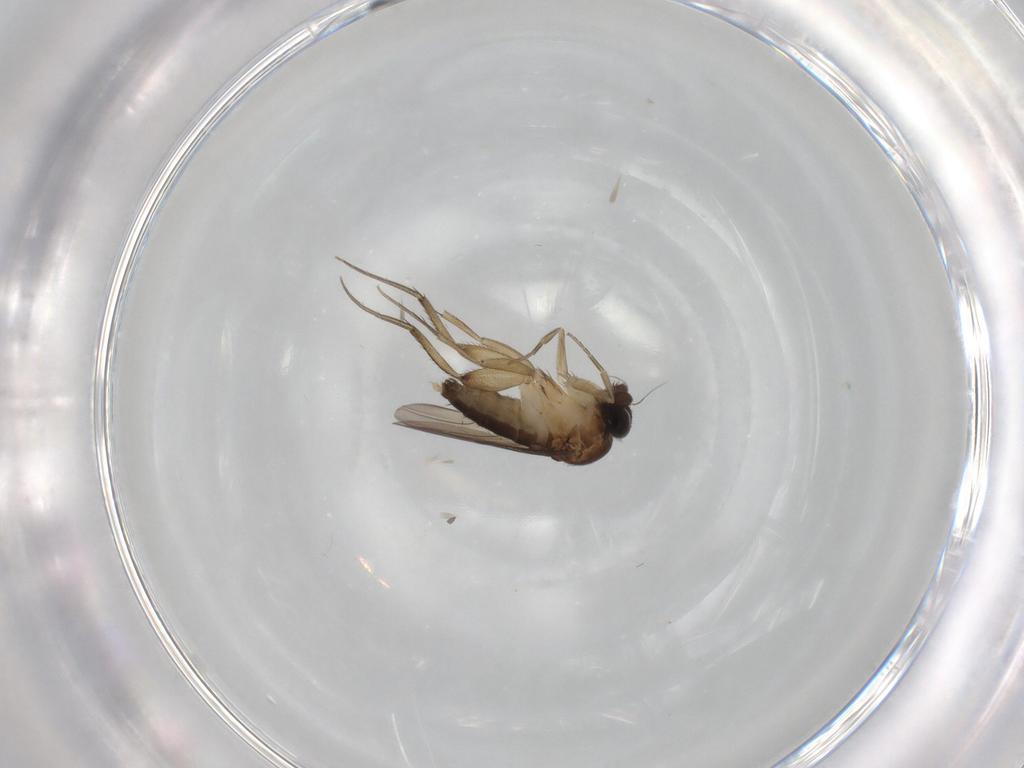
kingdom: Animalia
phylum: Arthropoda
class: Insecta
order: Diptera
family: Phoridae
